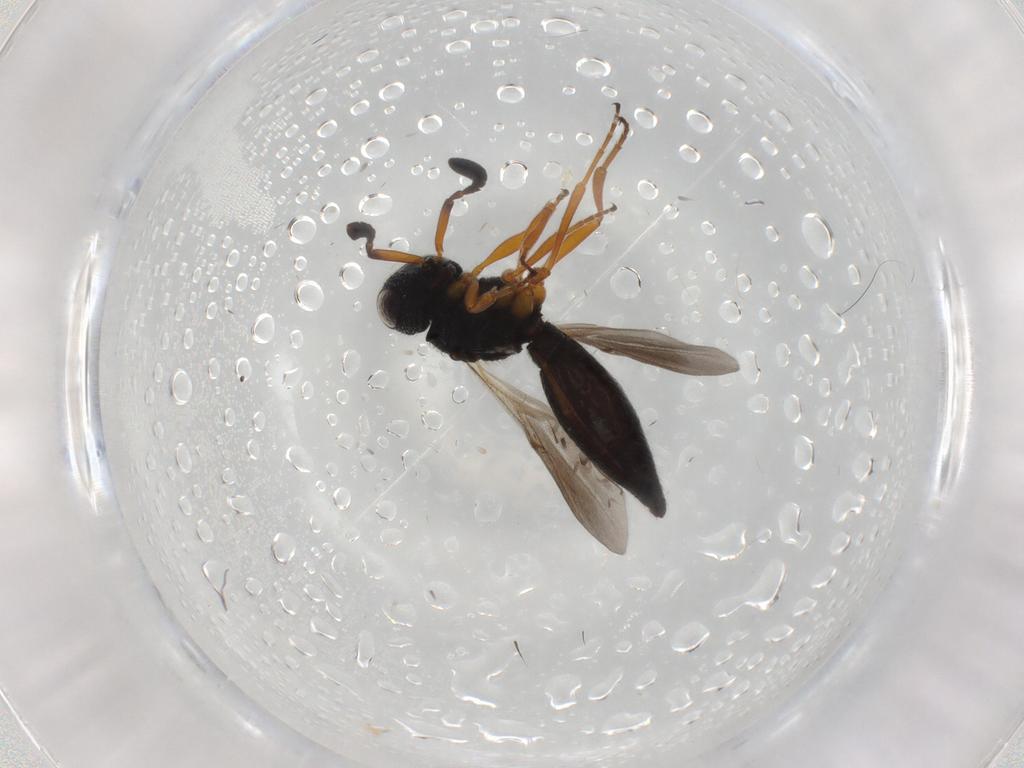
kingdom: Animalia
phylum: Arthropoda
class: Insecta
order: Hymenoptera
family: Scelionidae
